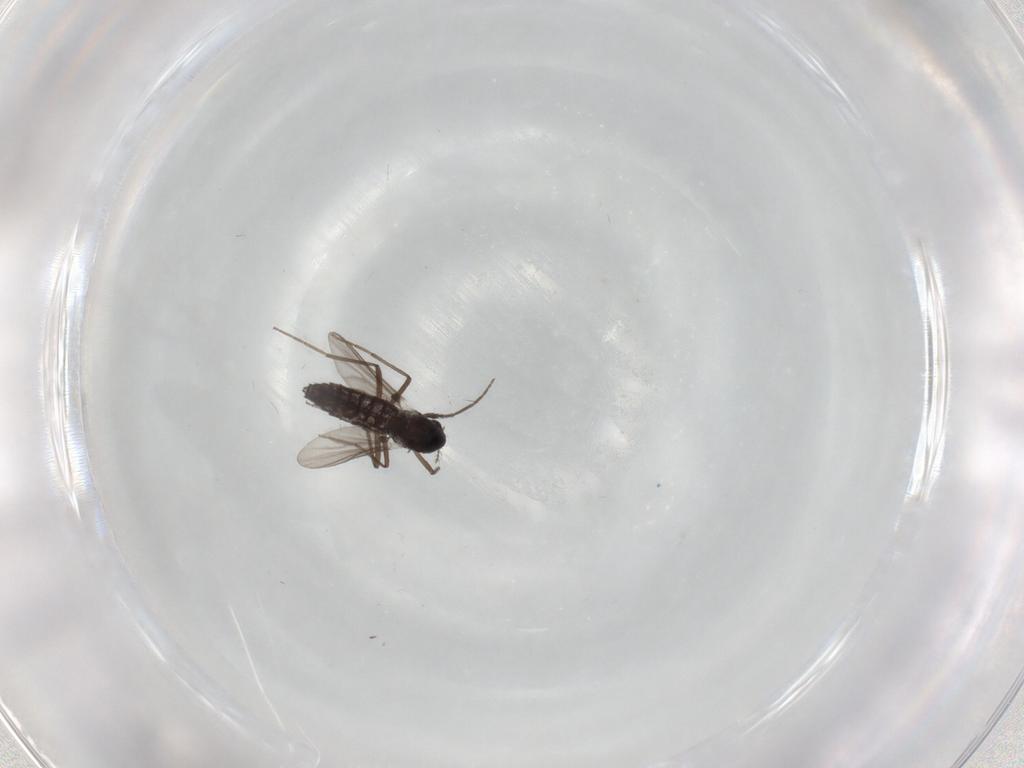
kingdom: Animalia
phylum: Arthropoda
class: Insecta
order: Diptera
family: Chironomidae
